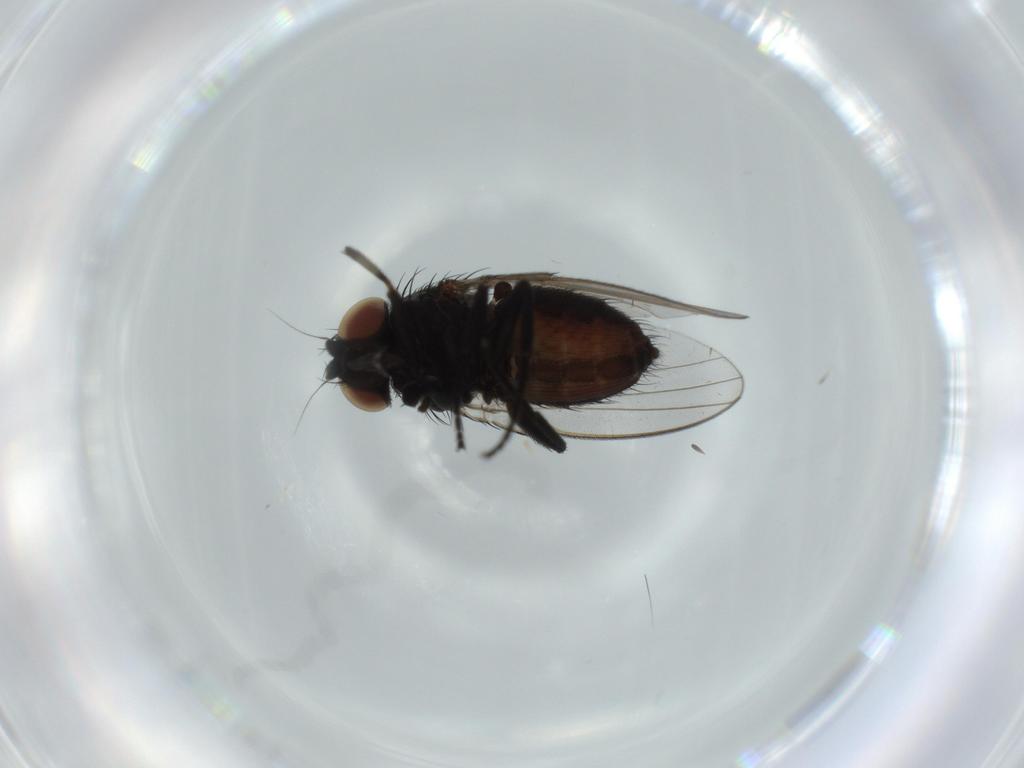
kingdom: Animalia
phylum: Arthropoda
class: Insecta
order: Diptera
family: Milichiidae
